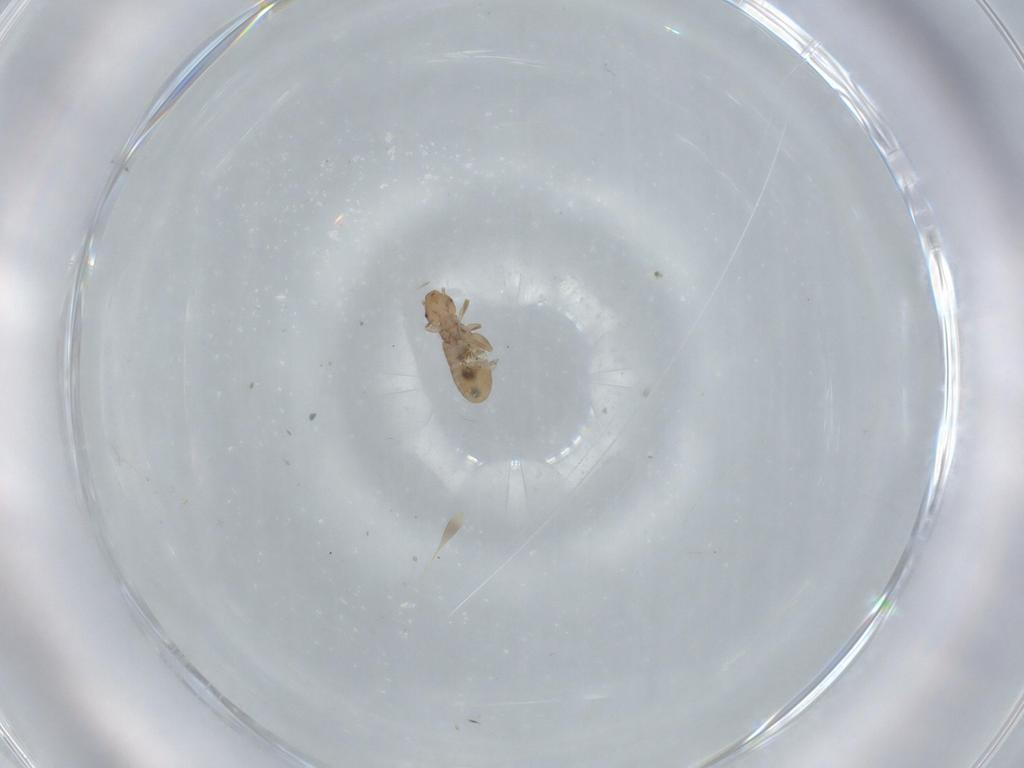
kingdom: Animalia
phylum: Arthropoda
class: Insecta
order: Psocodea
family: Liposcelididae
